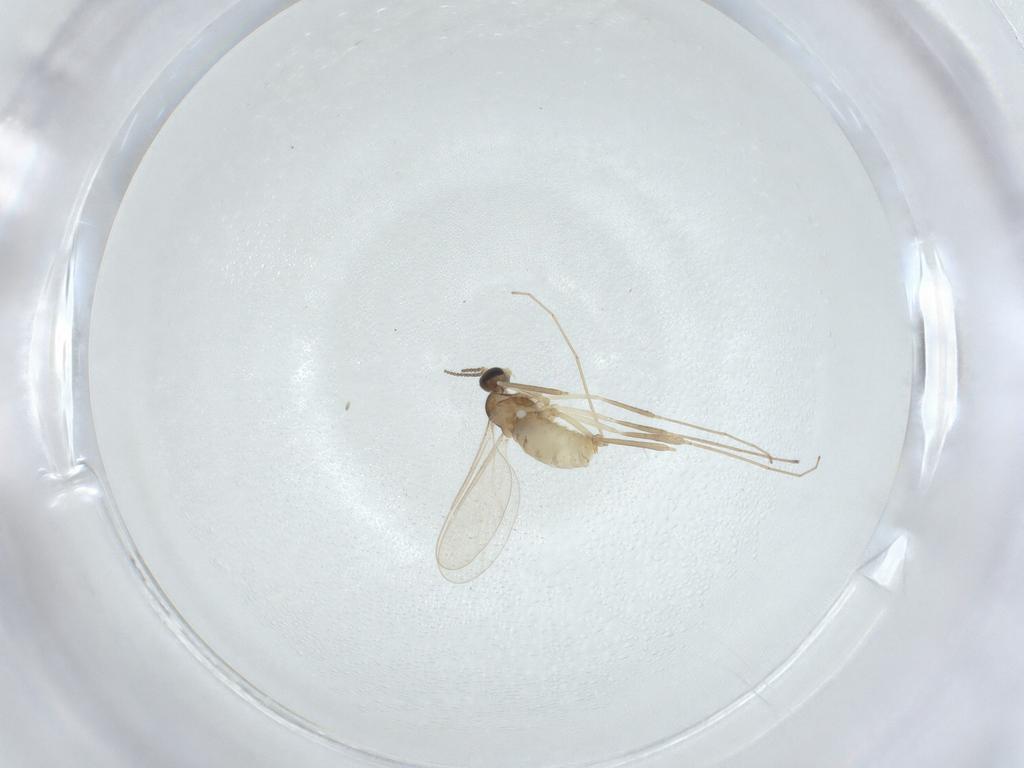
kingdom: Animalia
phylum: Arthropoda
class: Insecta
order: Diptera
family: Cecidomyiidae
